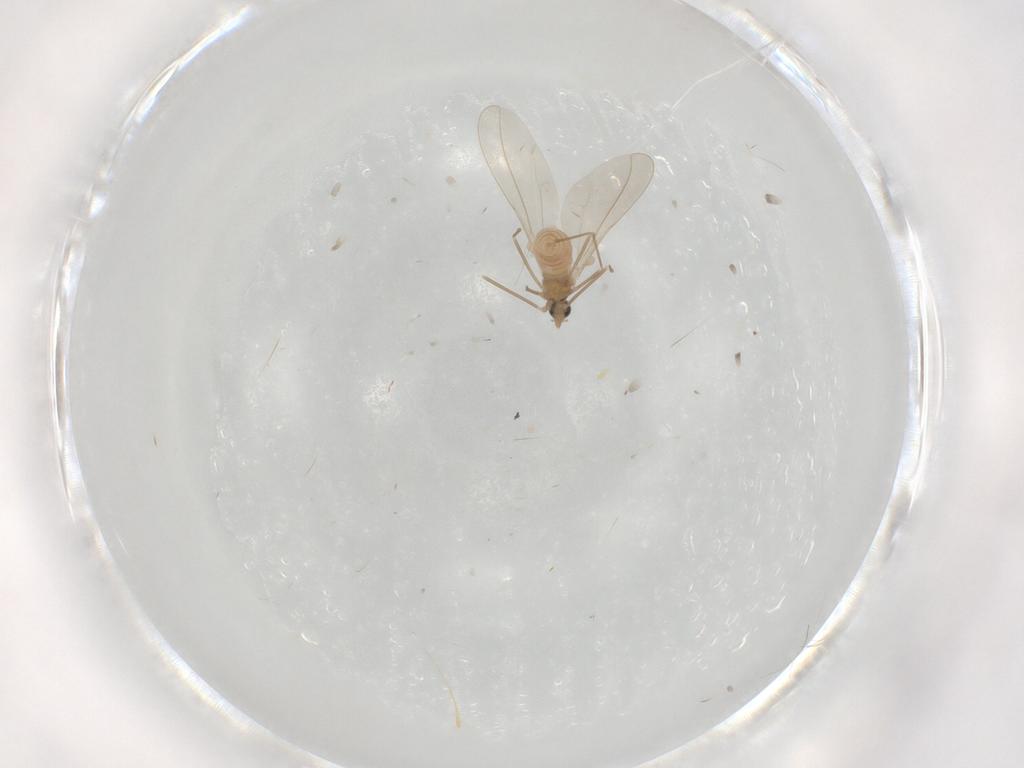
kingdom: Animalia
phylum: Arthropoda
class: Insecta
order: Diptera
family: Cecidomyiidae
